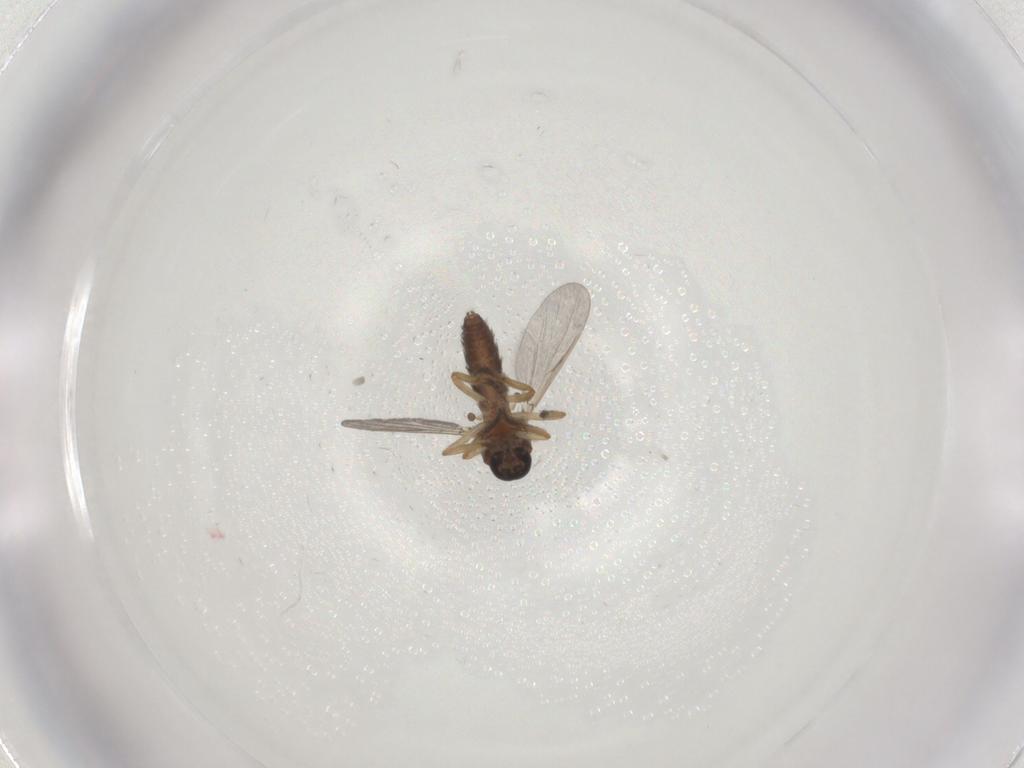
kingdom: Animalia
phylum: Arthropoda
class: Insecta
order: Diptera
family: Ceratopogonidae
